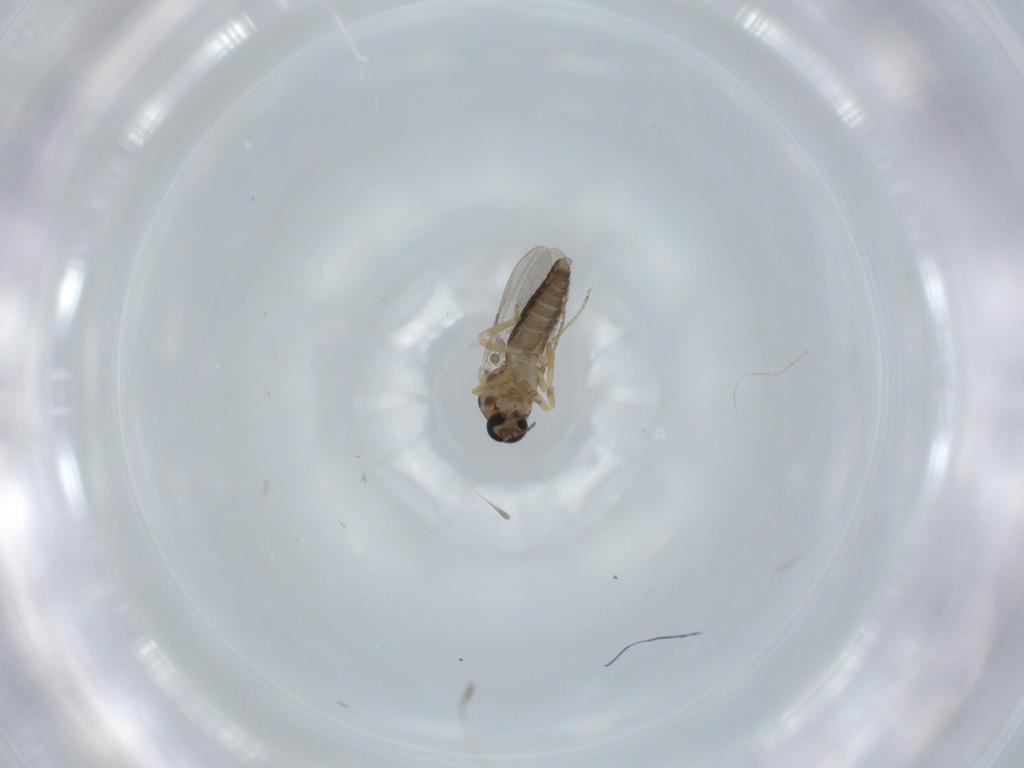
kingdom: Animalia
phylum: Arthropoda
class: Insecta
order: Diptera
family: Ceratopogonidae
